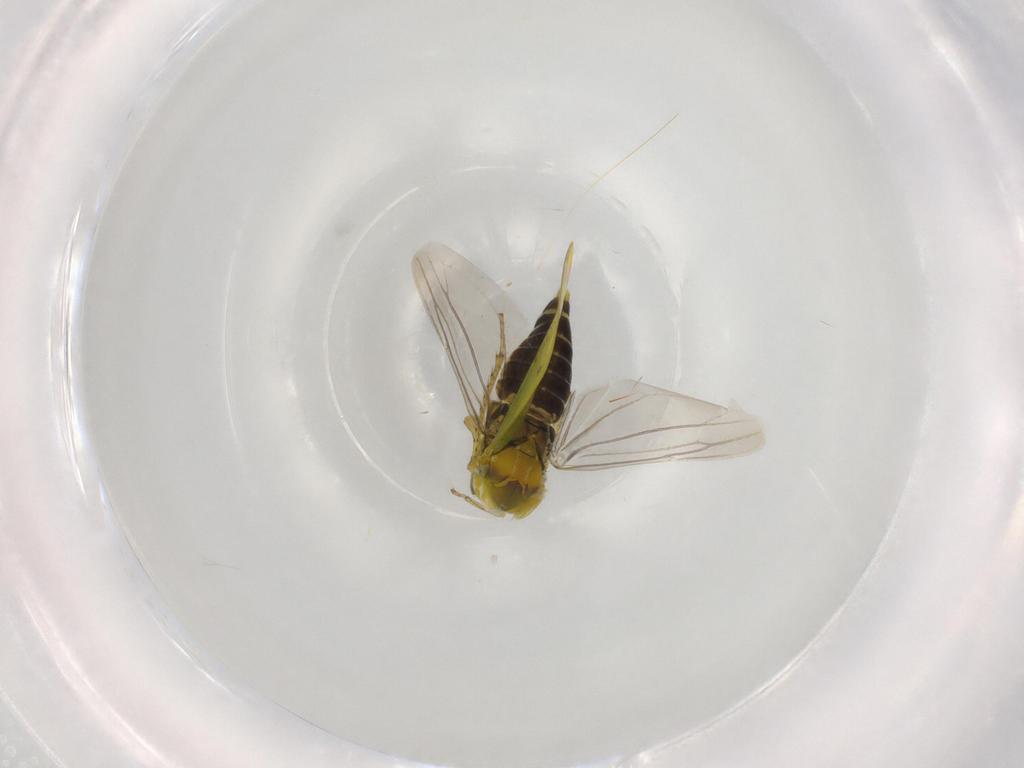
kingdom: Animalia
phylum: Arthropoda
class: Insecta
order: Hemiptera
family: Cicadellidae
